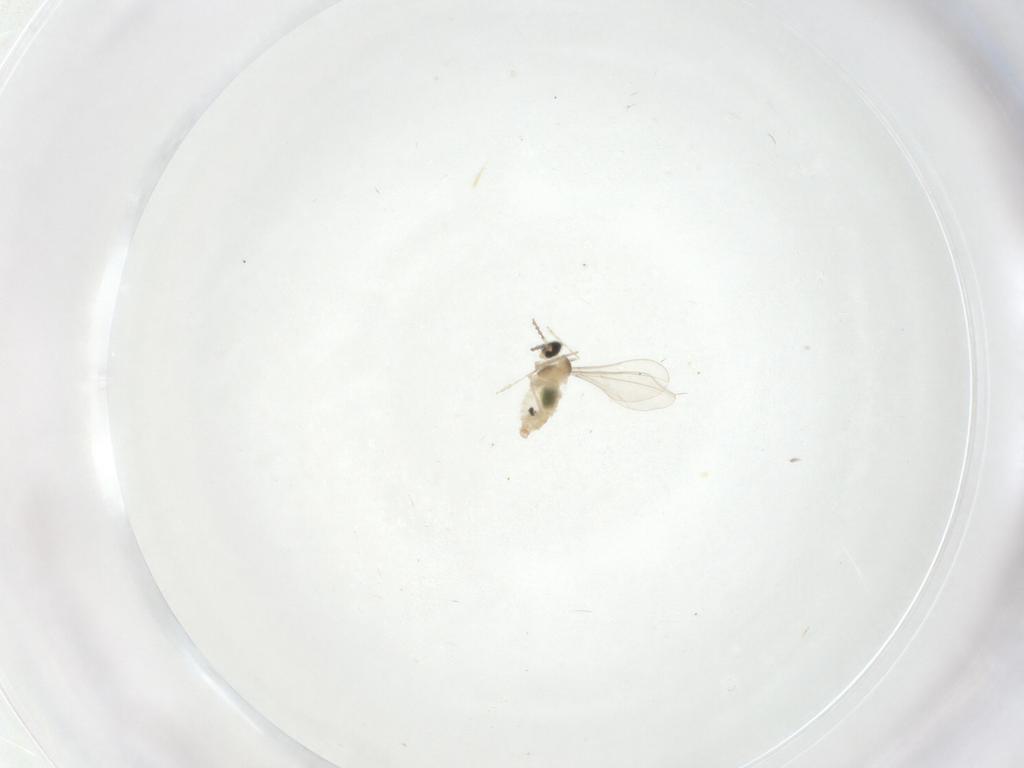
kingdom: Animalia
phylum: Arthropoda
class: Insecta
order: Diptera
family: Cecidomyiidae
